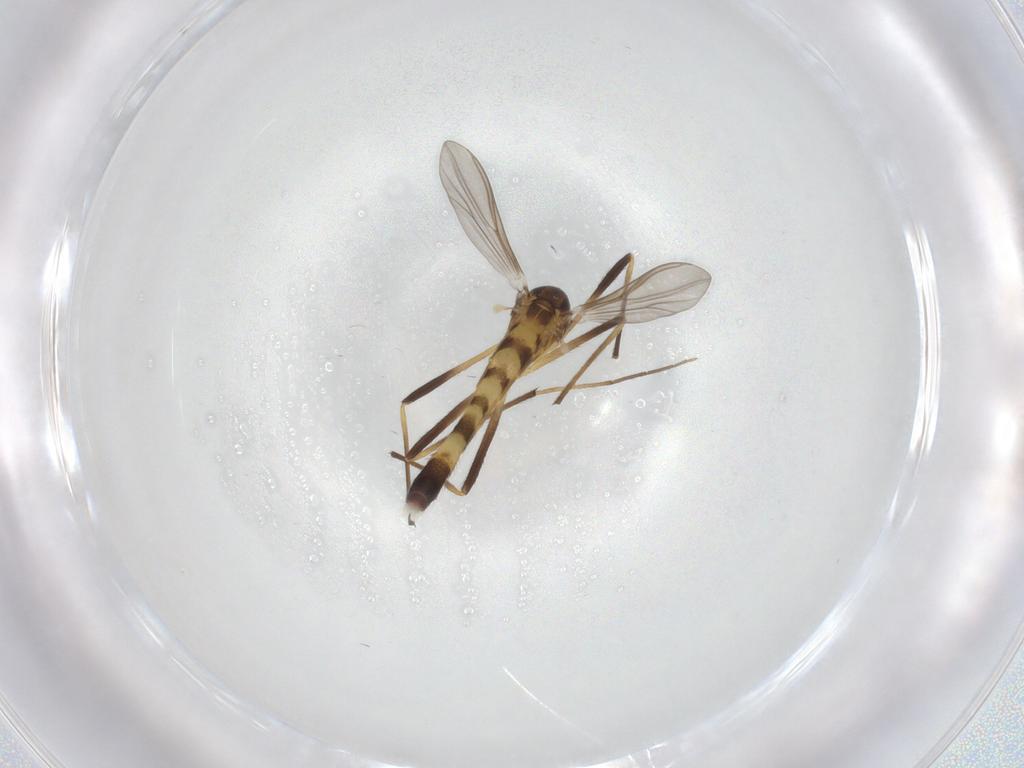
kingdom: Animalia
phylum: Arthropoda
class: Insecta
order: Diptera
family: Chironomidae
